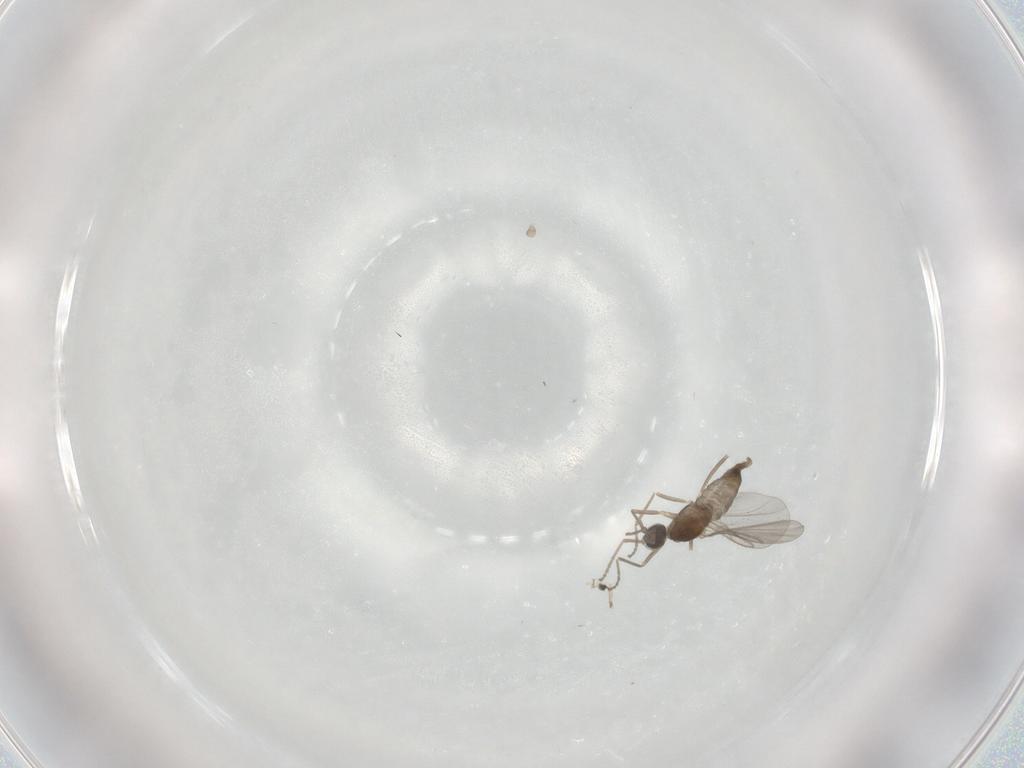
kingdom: Animalia
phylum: Arthropoda
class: Insecta
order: Diptera
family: Cecidomyiidae
